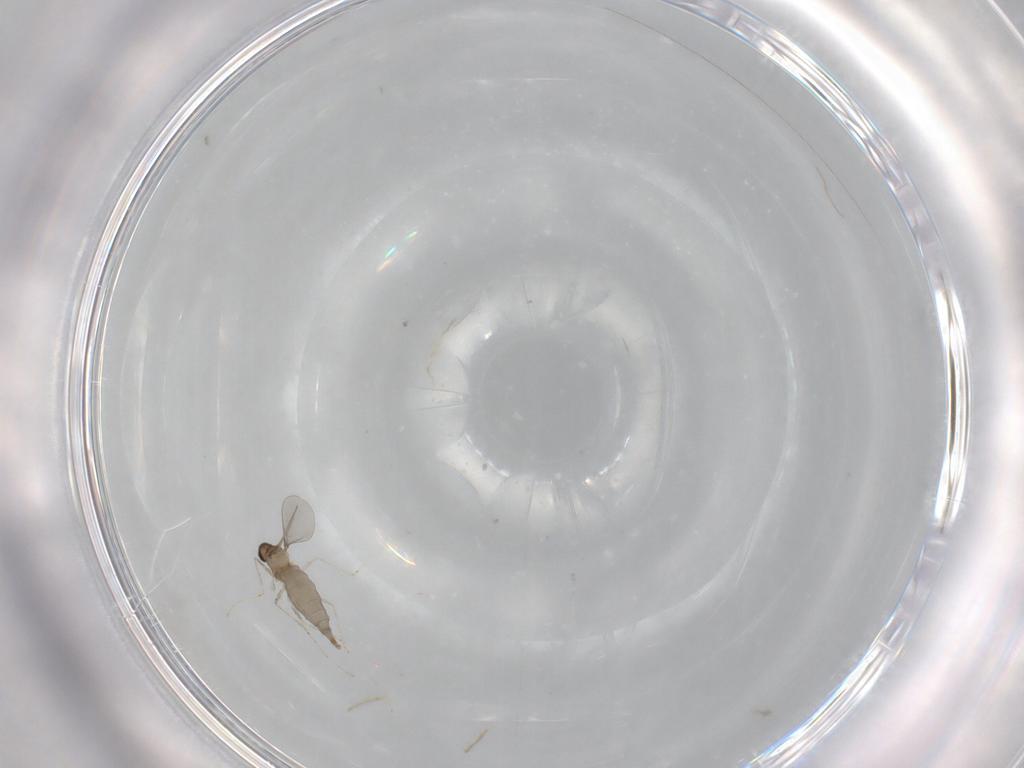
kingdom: Animalia
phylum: Arthropoda
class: Insecta
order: Diptera
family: Cecidomyiidae
